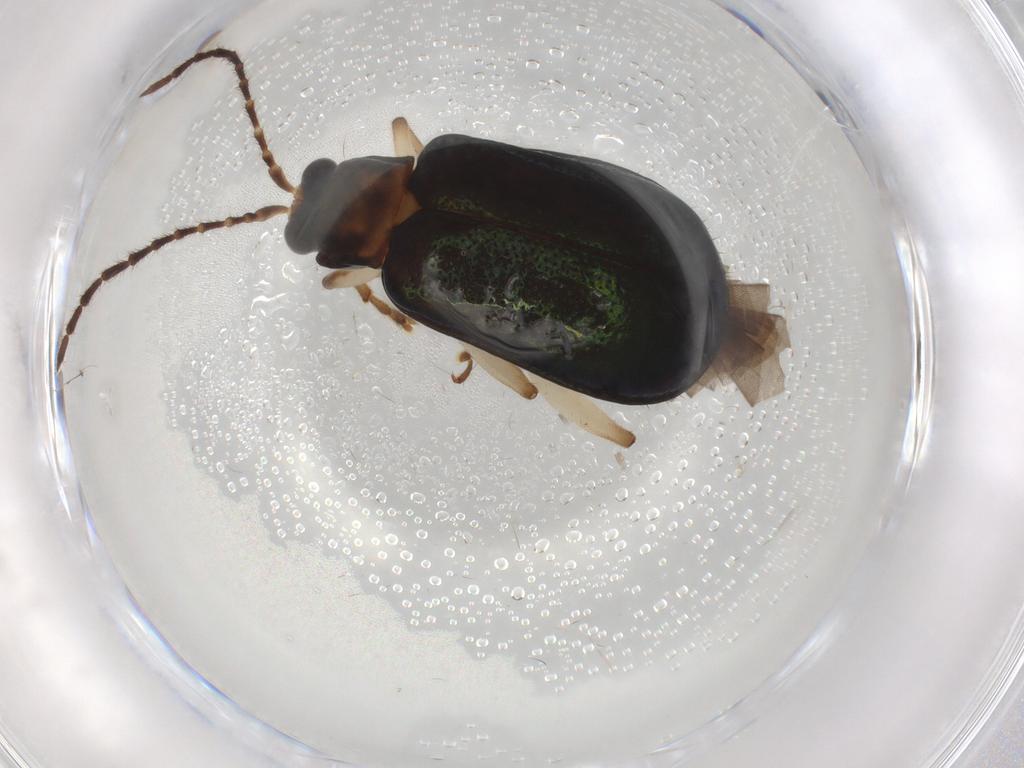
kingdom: Animalia
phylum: Arthropoda
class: Insecta
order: Coleoptera
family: Chrysomelidae
